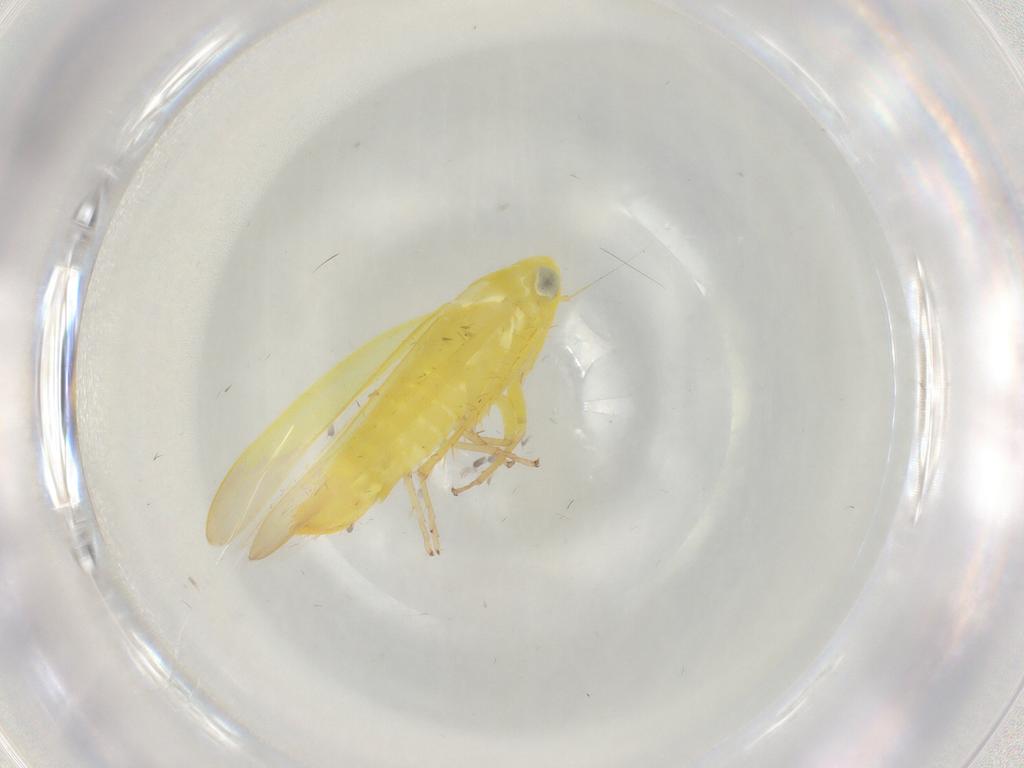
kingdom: Animalia
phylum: Arthropoda
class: Insecta
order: Hemiptera
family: Cicadellidae
